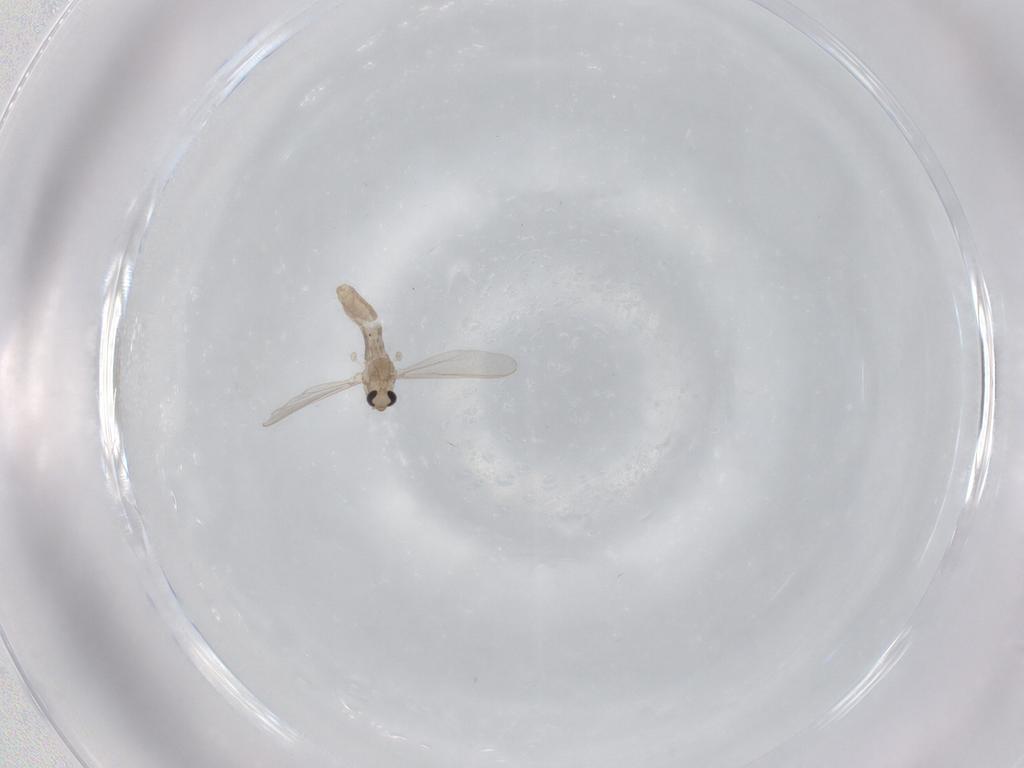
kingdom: Animalia
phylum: Arthropoda
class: Insecta
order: Diptera
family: Chironomidae
